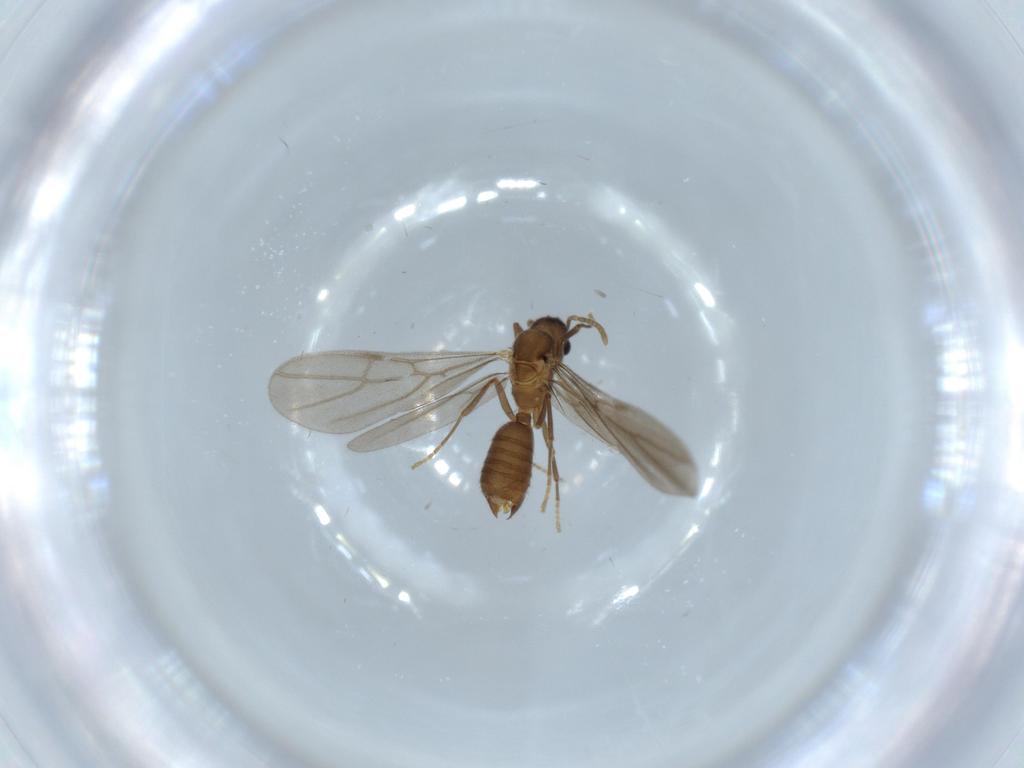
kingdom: Animalia
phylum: Arthropoda
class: Insecta
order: Hymenoptera
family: Formicidae
